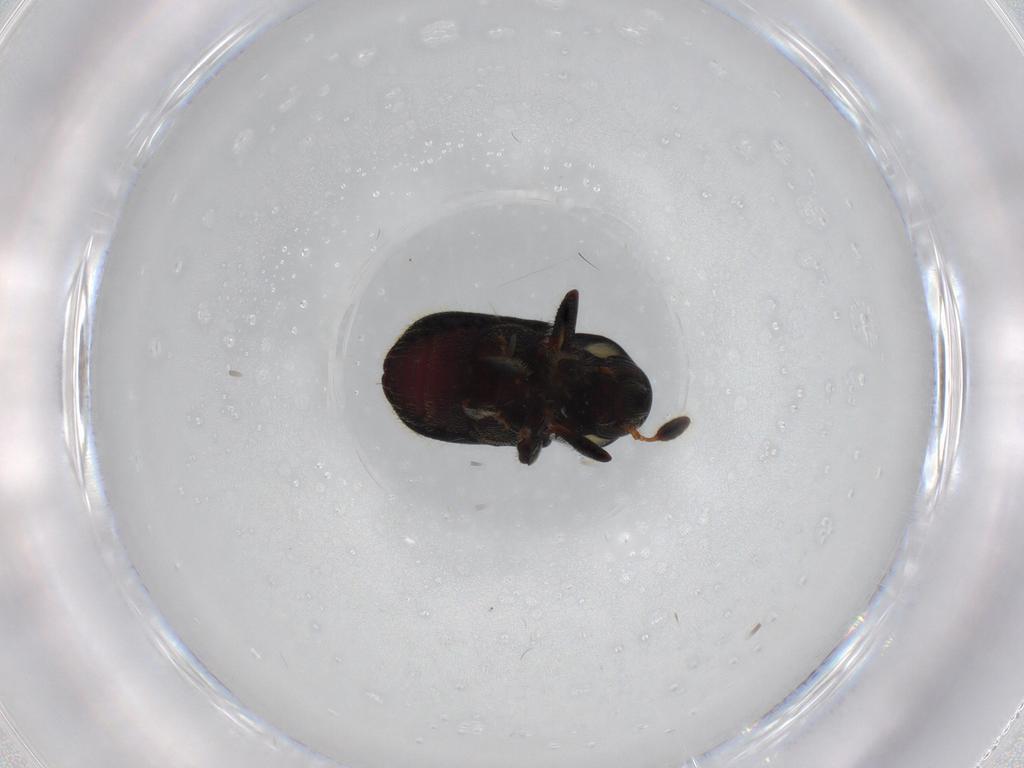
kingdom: Animalia
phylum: Arthropoda
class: Insecta
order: Coleoptera
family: Curculionidae
